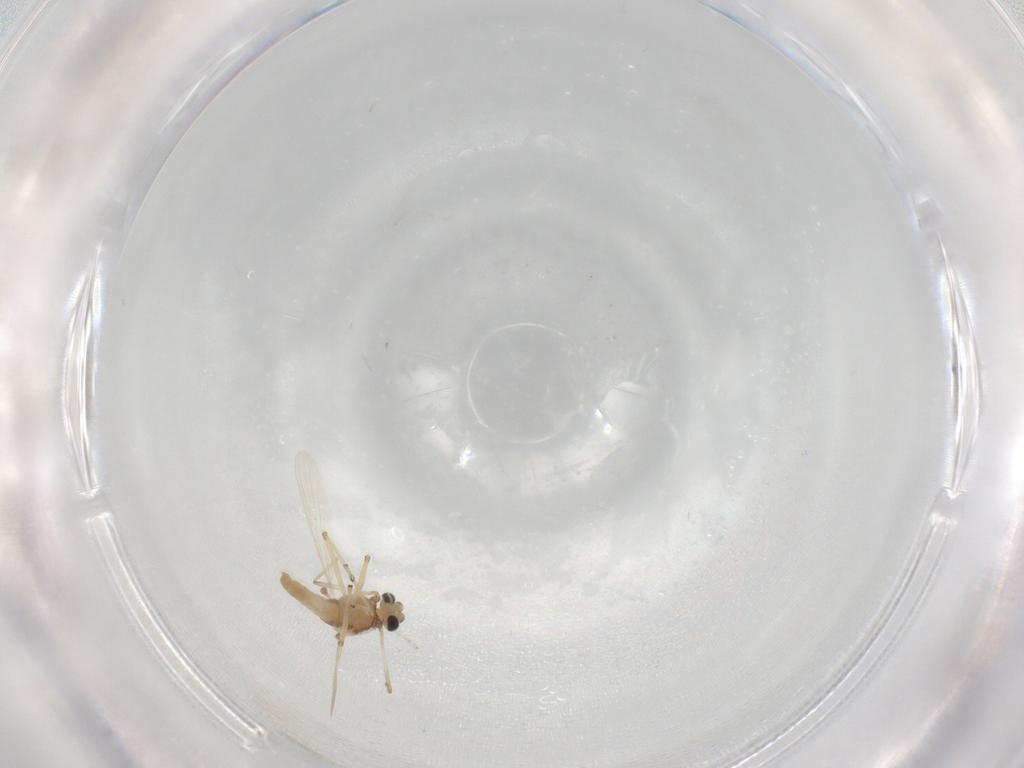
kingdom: Animalia
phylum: Arthropoda
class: Insecta
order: Diptera
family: Chironomidae
